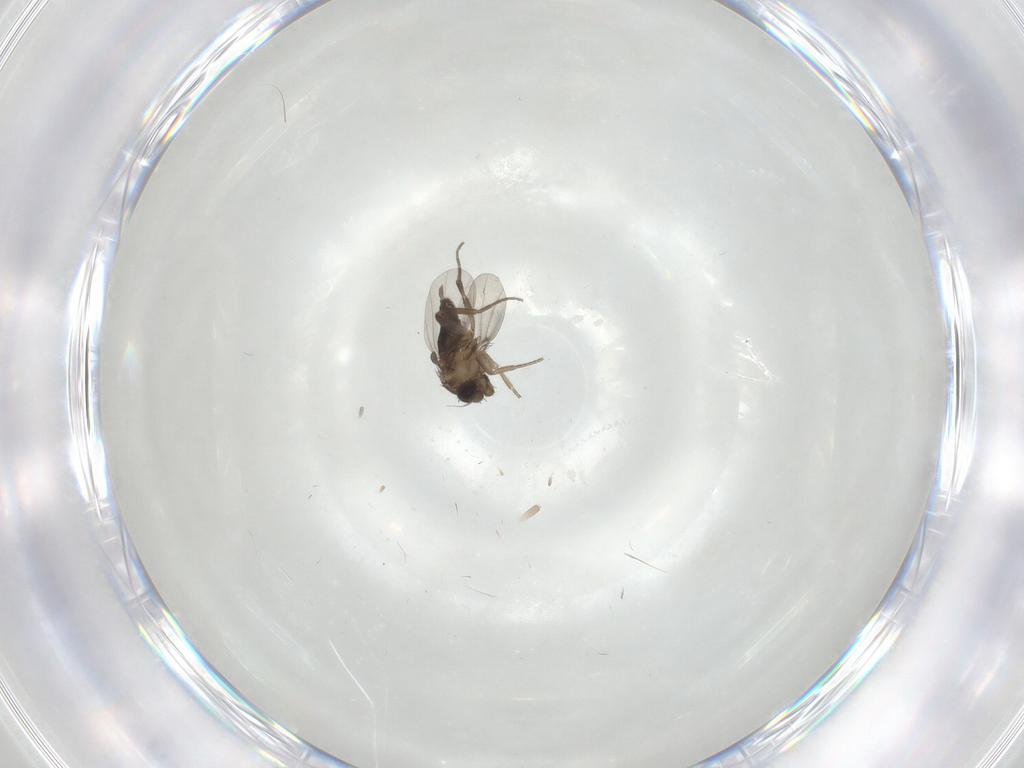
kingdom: Animalia
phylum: Arthropoda
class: Insecta
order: Diptera
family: Phoridae
